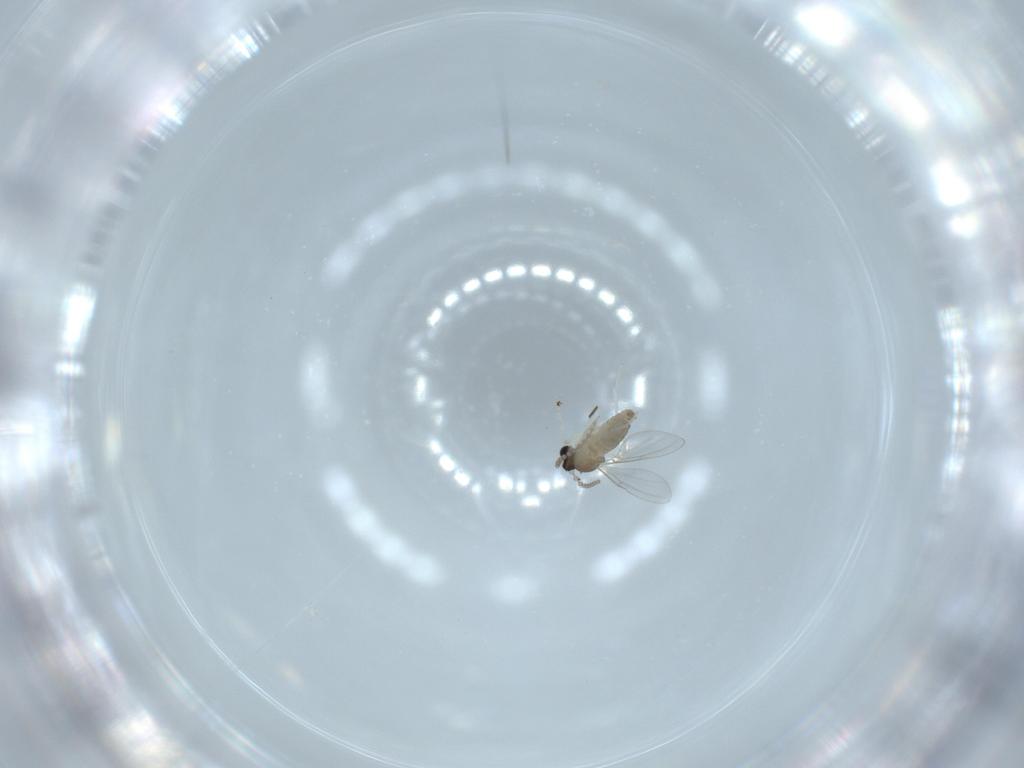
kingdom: Animalia
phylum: Arthropoda
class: Insecta
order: Diptera
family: Cecidomyiidae
